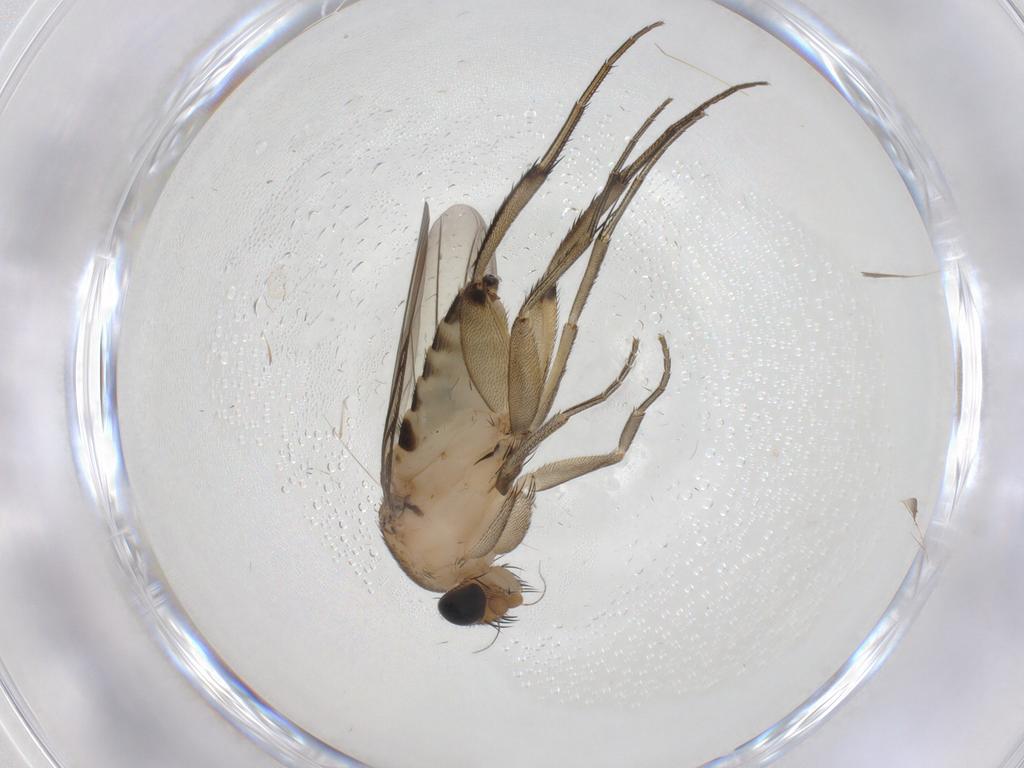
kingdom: Animalia
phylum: Arthropoda
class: Insecta
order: Diptera
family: Phoridae
